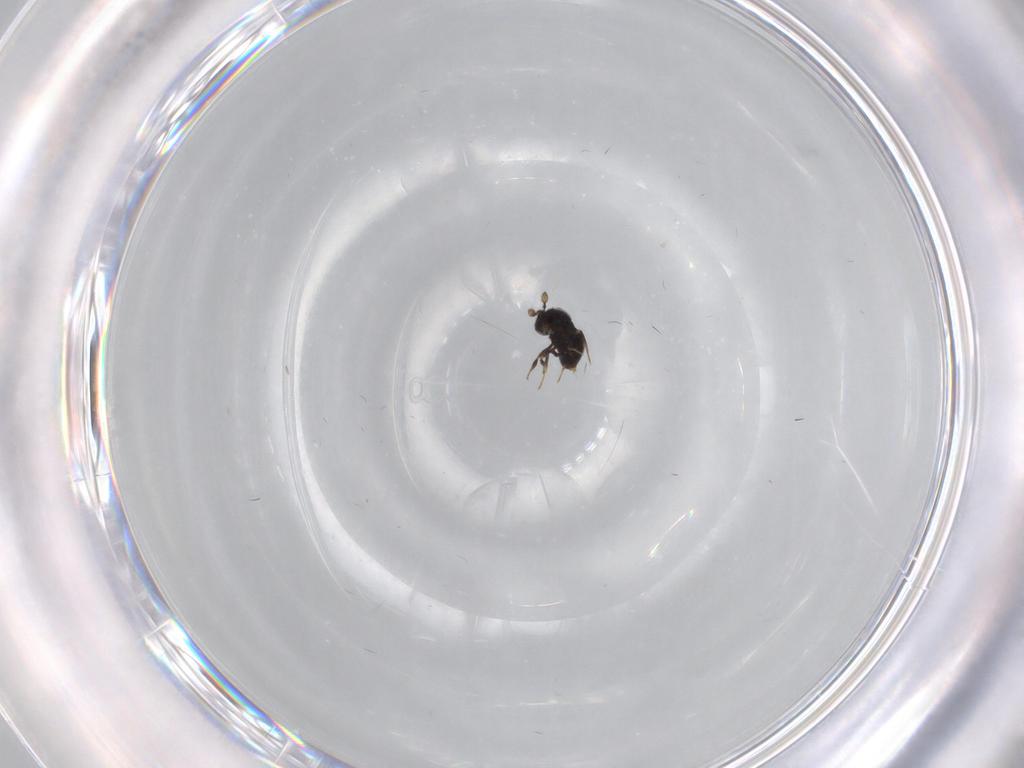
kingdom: Animalia
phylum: Arthropoda
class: Insecta
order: Hymenoptera
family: Scelionidae
